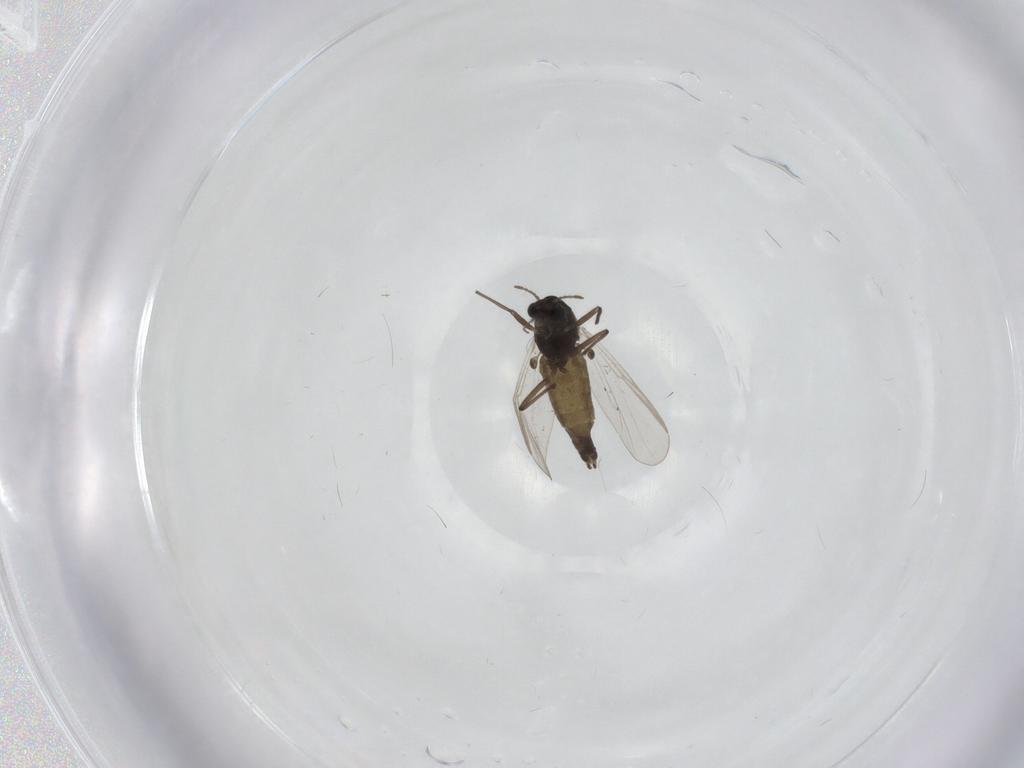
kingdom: Animalia
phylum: Arthropoda
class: Insecta
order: Diptera
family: Chironomidae
